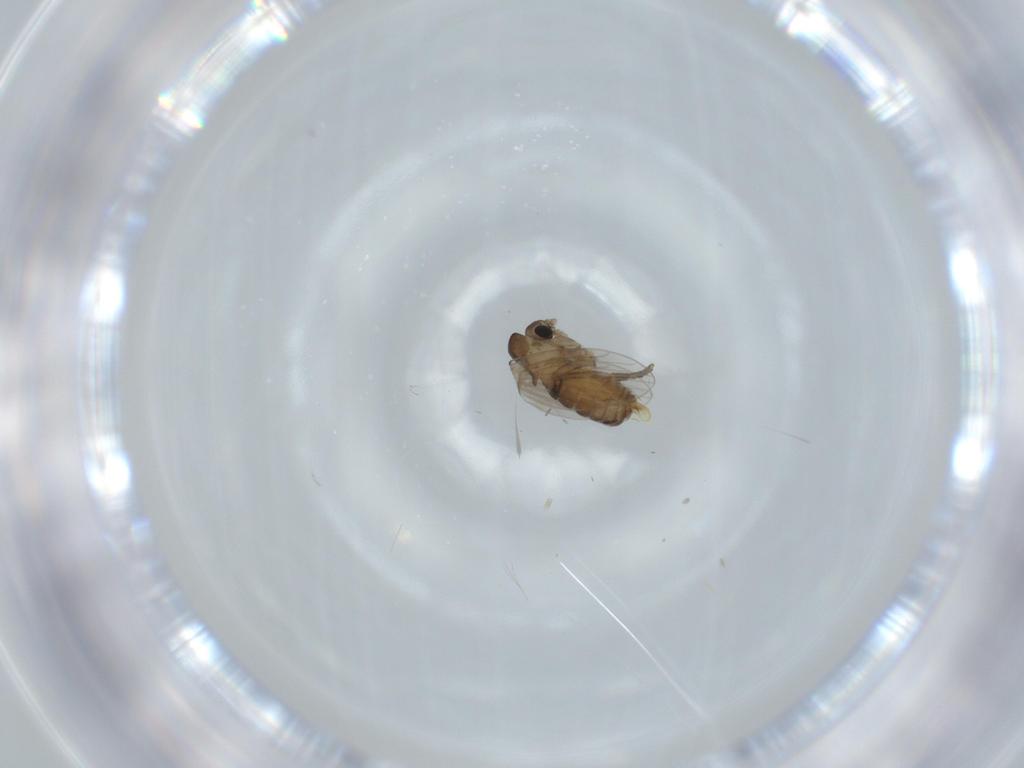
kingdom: Animalia
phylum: Arthropoda
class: Insecta
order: Diptera
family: Psychodidae
